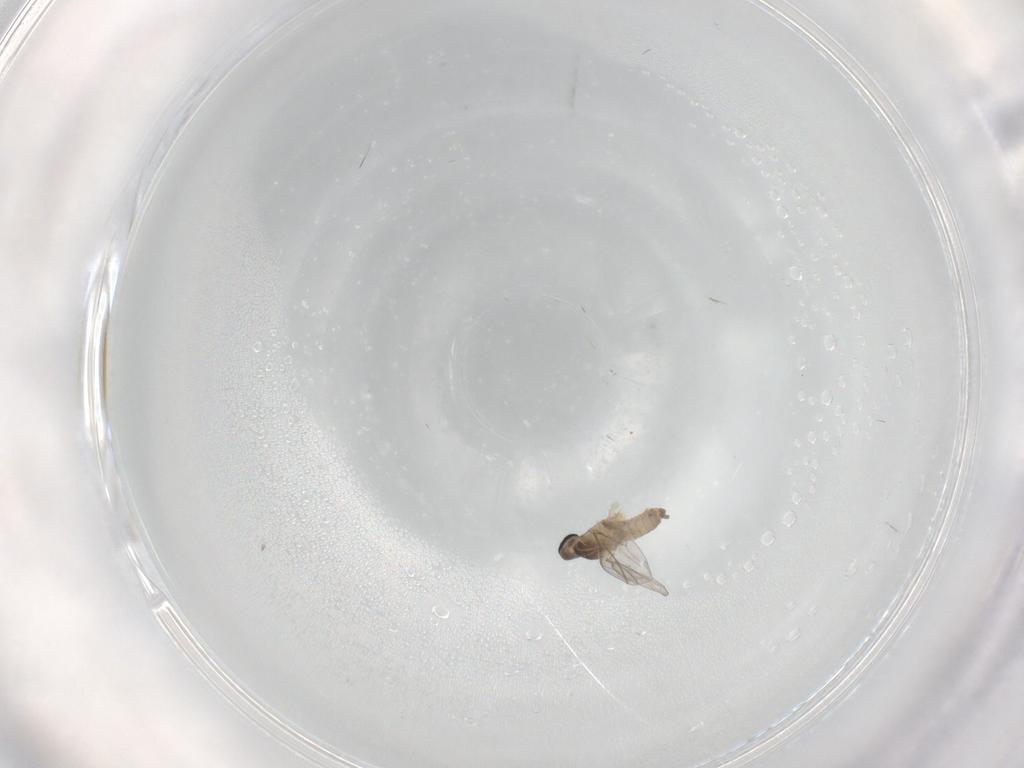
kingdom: Animalia
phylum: Arthropoda
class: Insecta
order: Diptera
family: Cecidomyiidae
